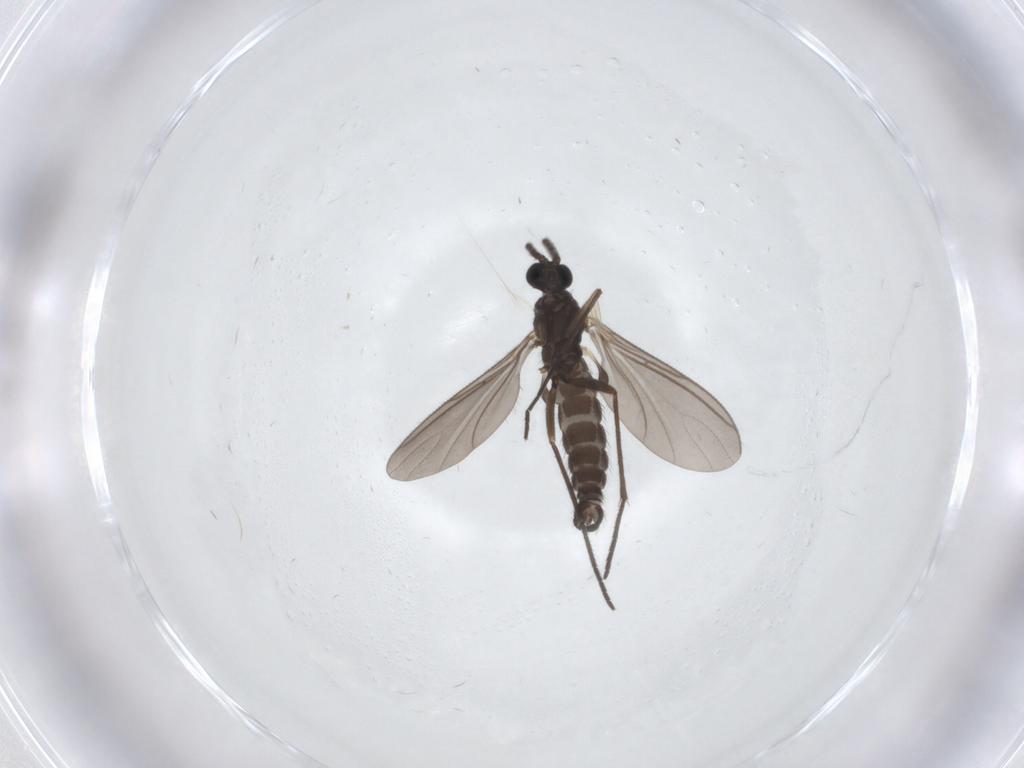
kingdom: Animalia
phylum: Arthropoda
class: Insecta
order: Diptera
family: Sciaridae
